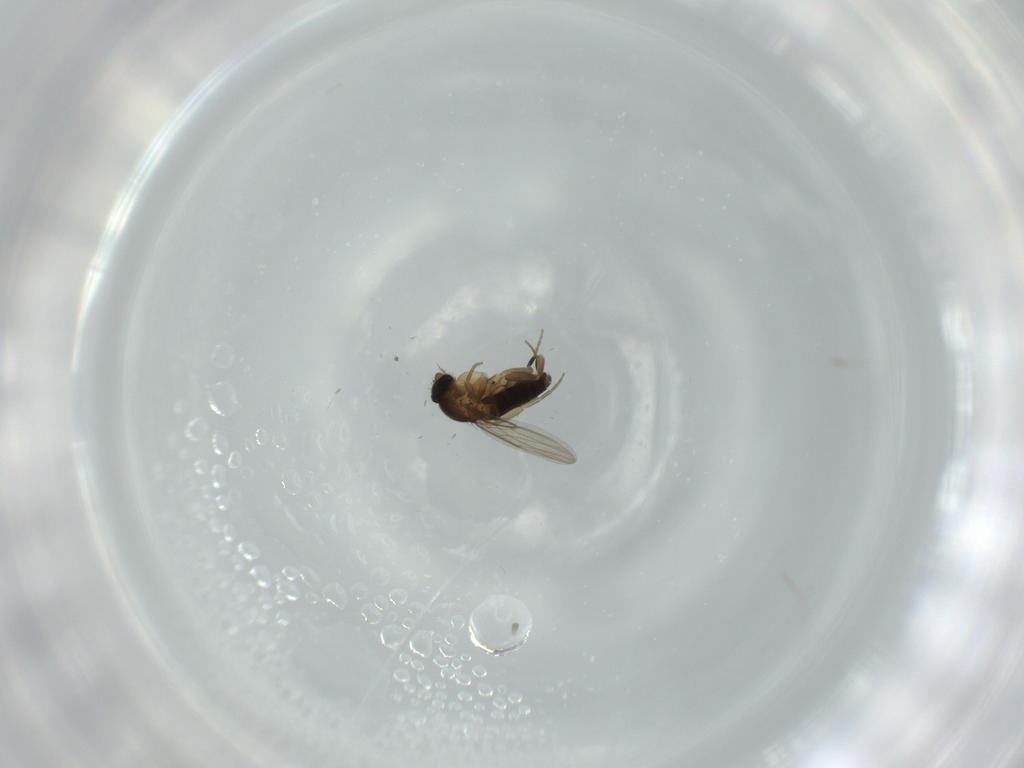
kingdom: Animalia
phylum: Arthropoda
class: Insecta
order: Diptera
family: Phoridae
